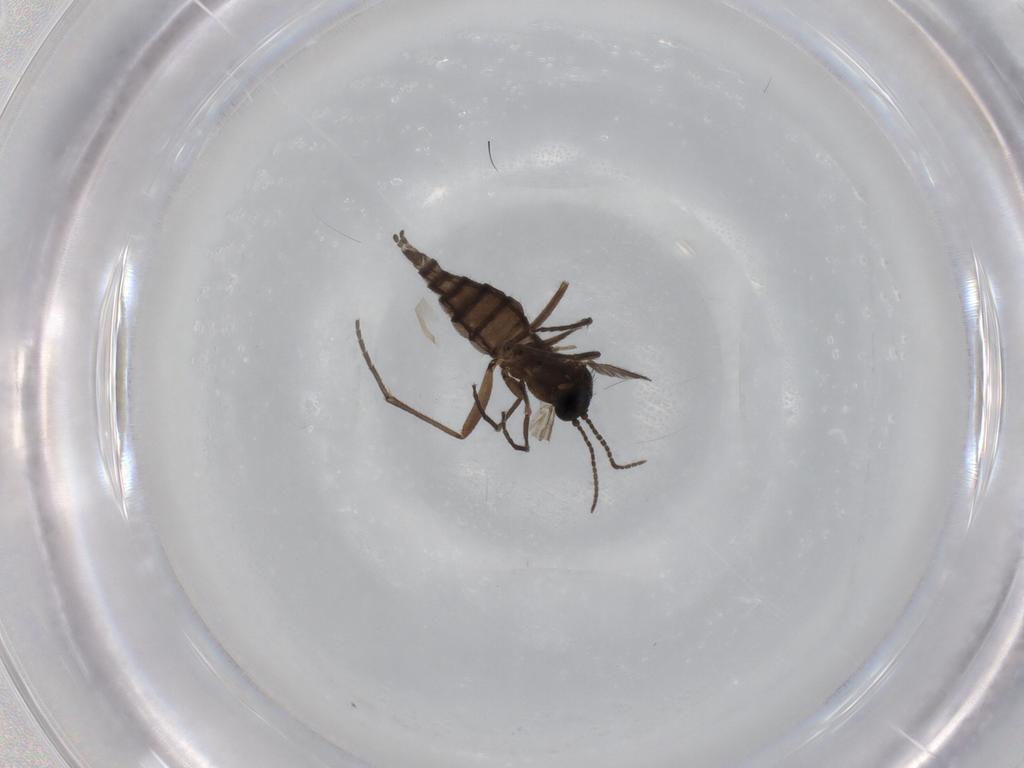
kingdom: Animalia
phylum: Arthropoda
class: Insecta
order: Diptera
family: Sciaridae
